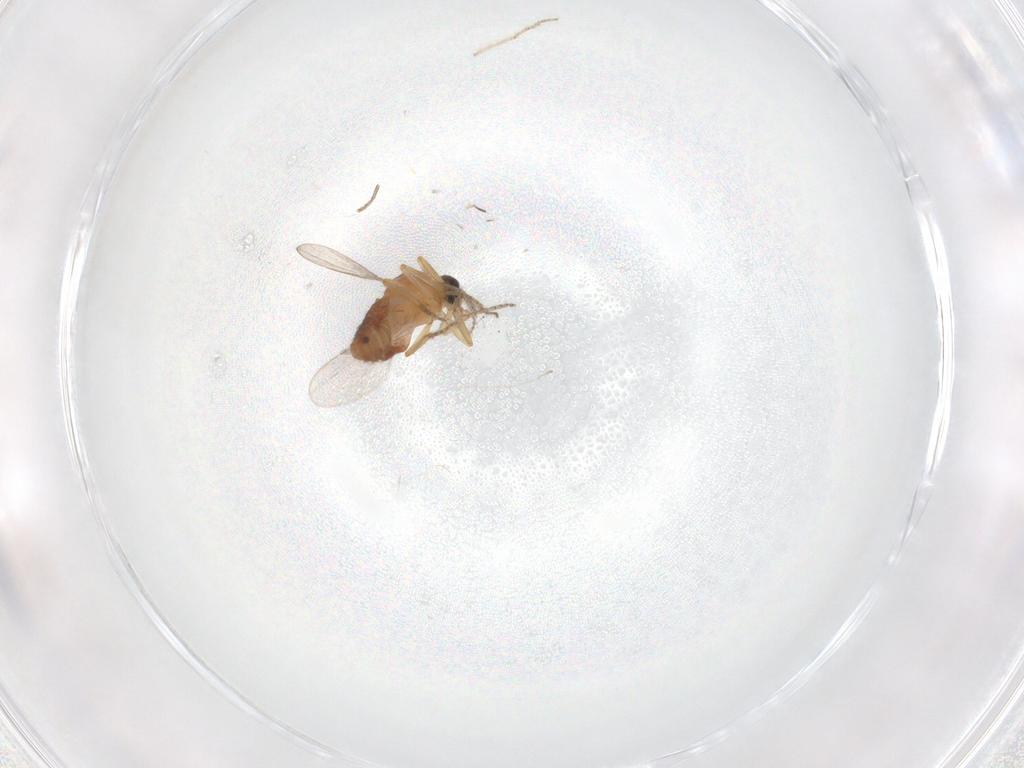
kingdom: Animalia
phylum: Arthropoda
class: Insecta
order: Diptera
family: Ceratopogonidae
